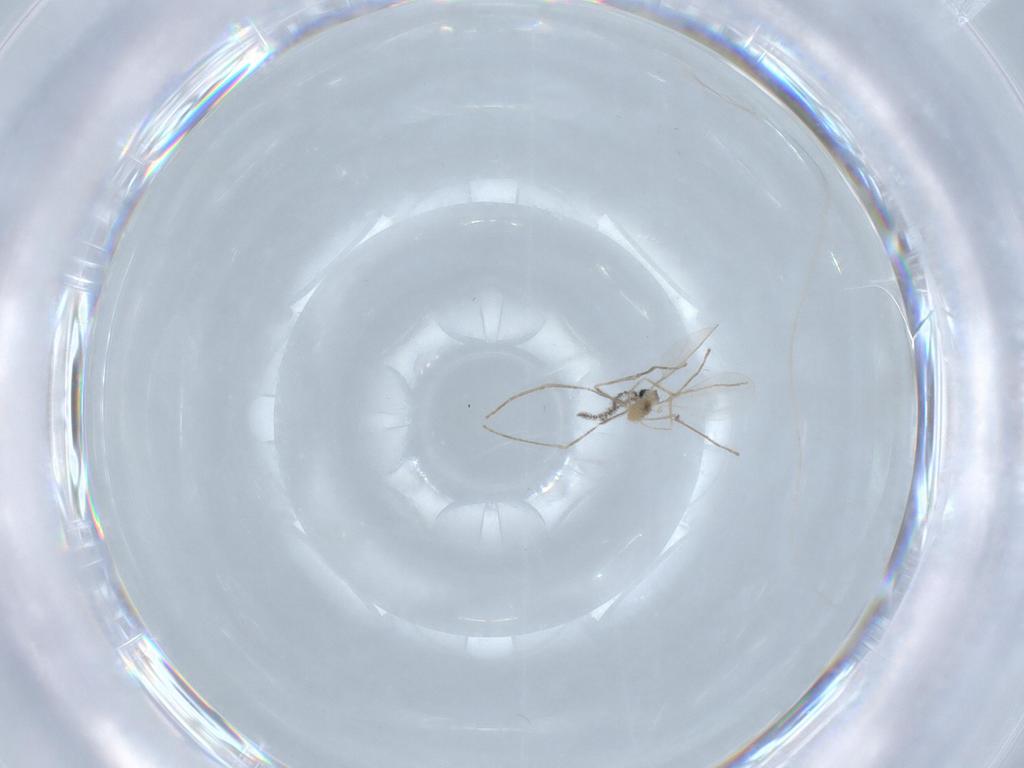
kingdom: Animalia
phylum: Arthropoda
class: Insecta
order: Diptera
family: Cecidomyiidae
